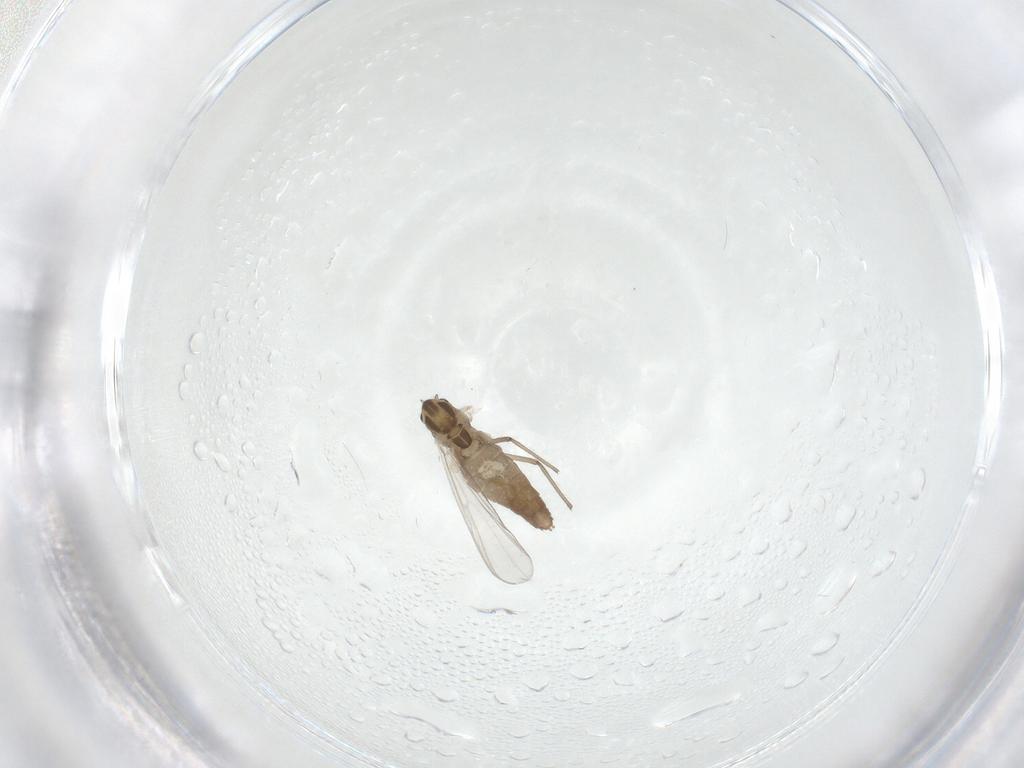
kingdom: Animalia
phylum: Arthropoda
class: Insecta
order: Diptera
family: Chironomidae
